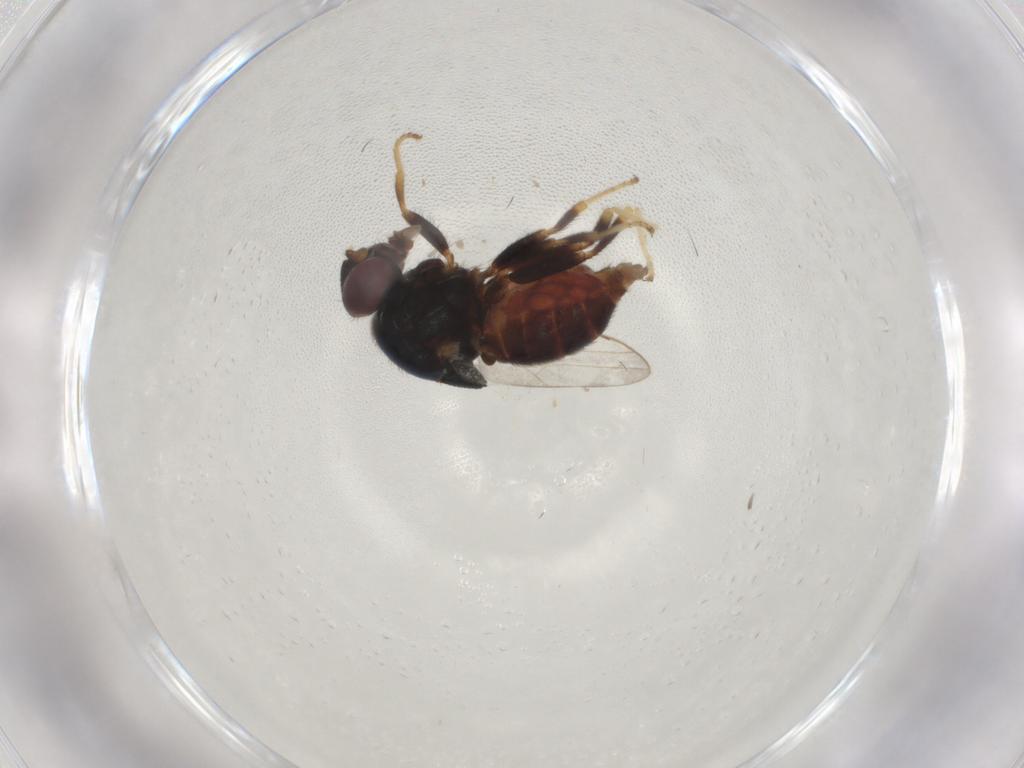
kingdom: Animalia
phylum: Arthropoda
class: Insecta
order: Diptera
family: Chloropidae
